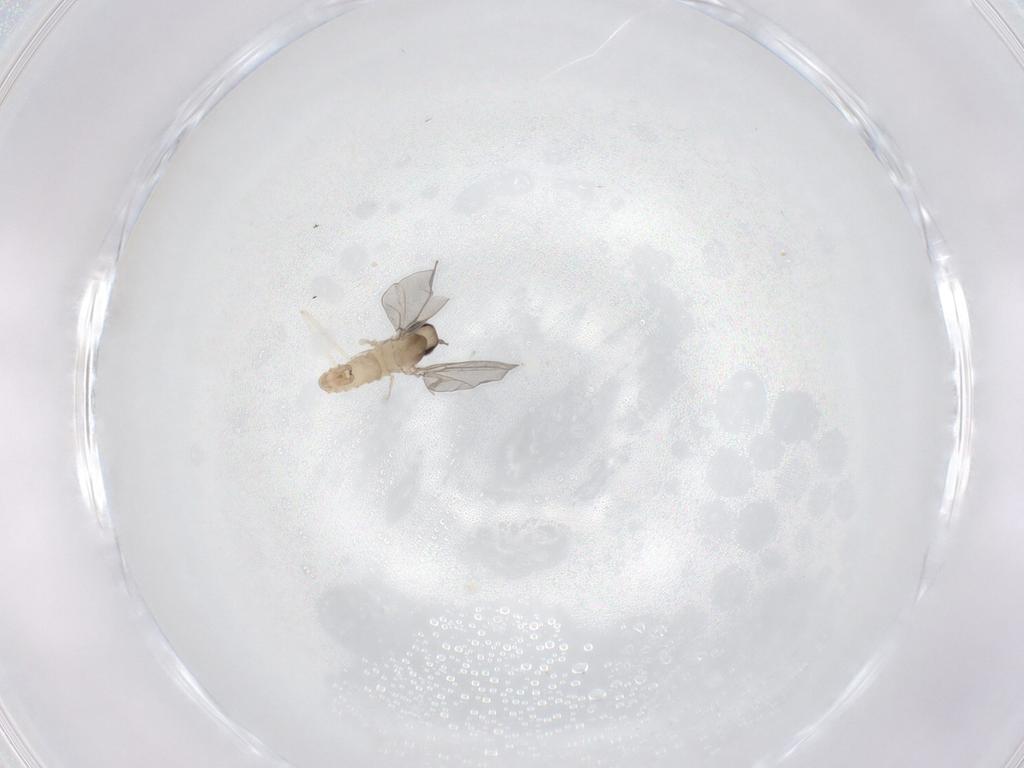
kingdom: Animalia
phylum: Arthropoda
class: Insecta
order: Diptera
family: Cecidomyiidae
